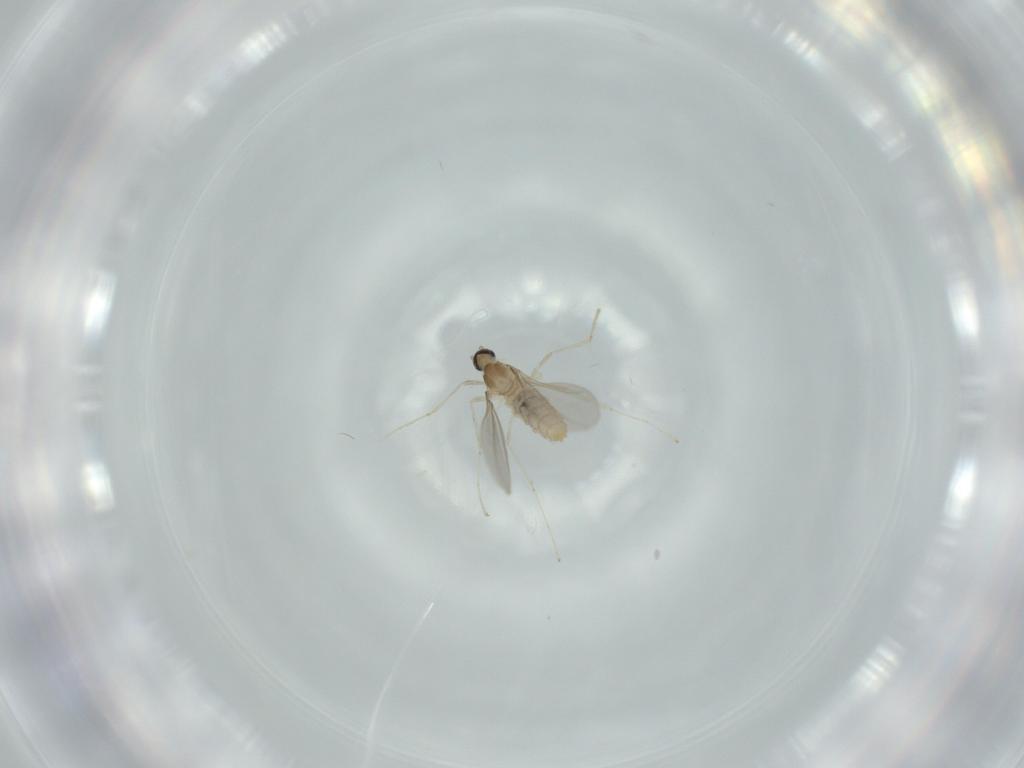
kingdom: Animalia
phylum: Arthropoda
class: Insecta
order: Diptera
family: Cecidomyiidae
